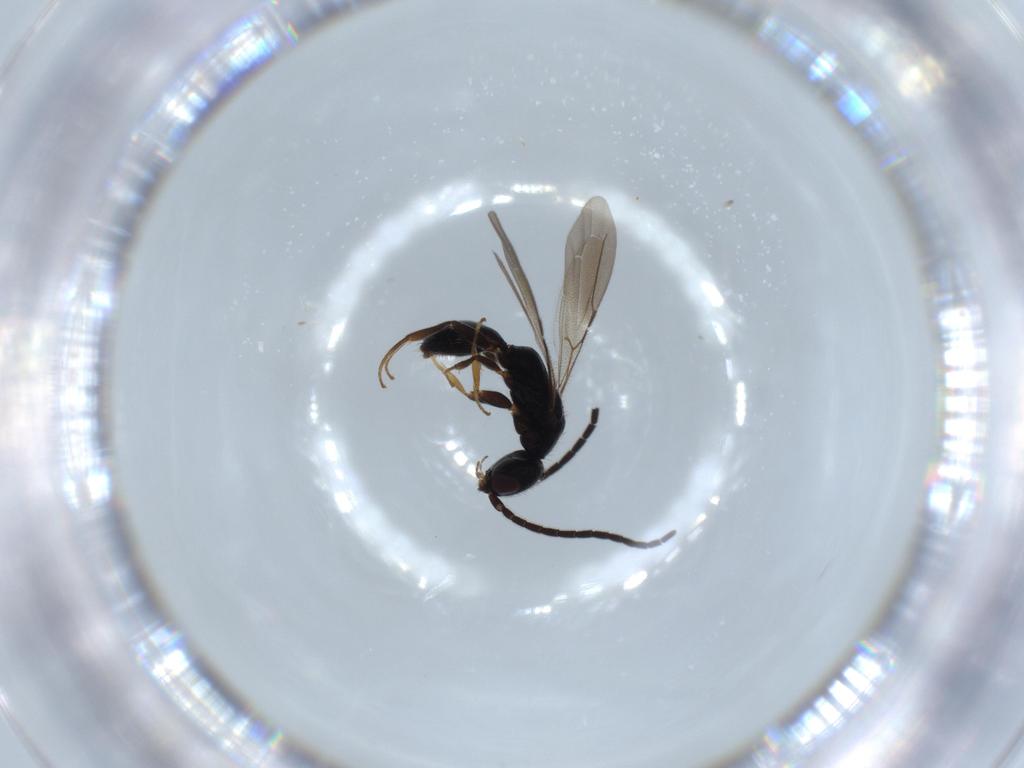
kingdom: Animalia
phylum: Arthropoda
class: Insecta
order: Hymenoptera
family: Bethylidae
